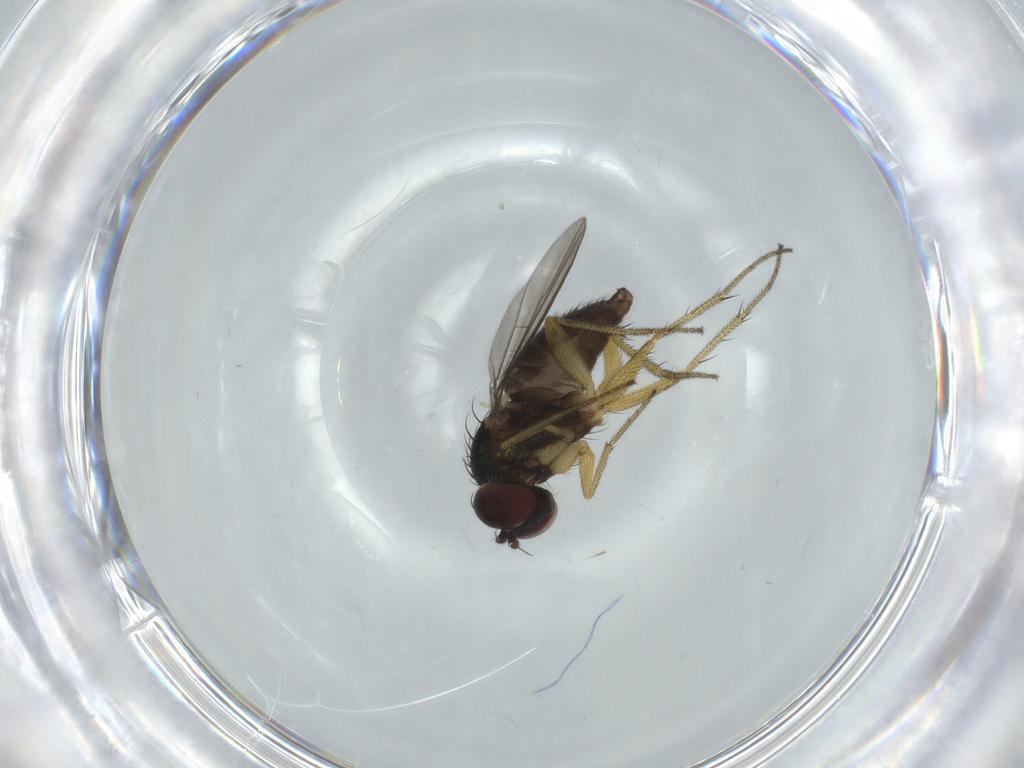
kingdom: Animalia
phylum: Arthropoda
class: Insecta
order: Diptera
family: Dolichopodidae
